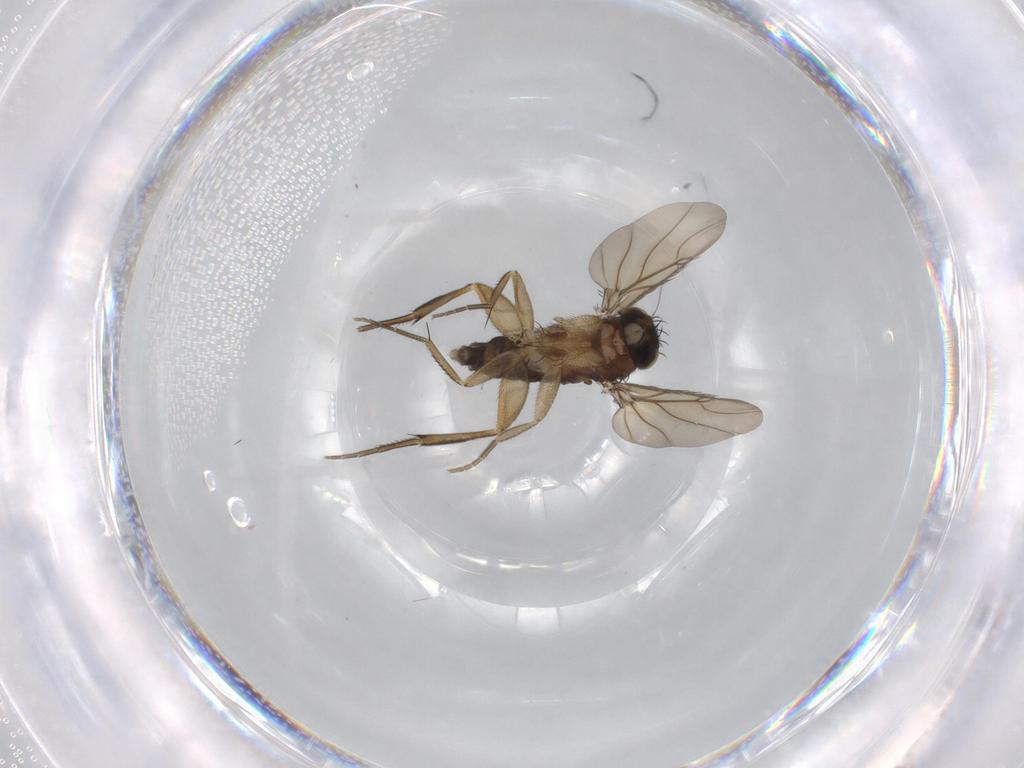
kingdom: Animalia
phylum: Arthropoda
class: Insecta
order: Diptera
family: Phoridae
